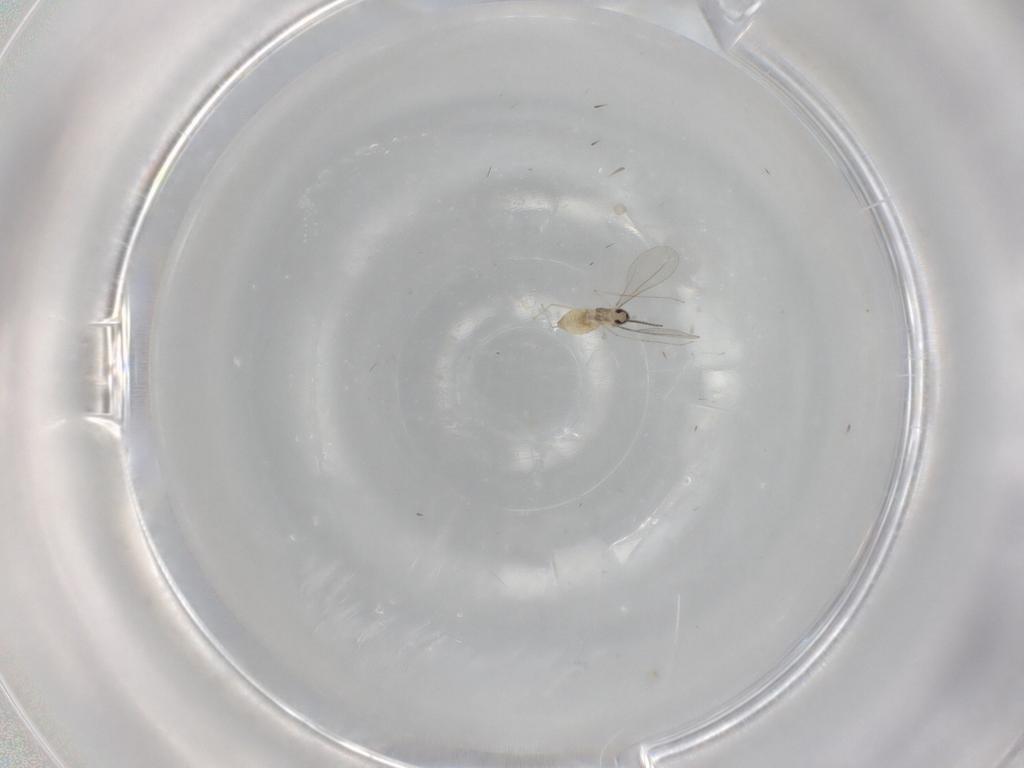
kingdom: Animalia
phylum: Arthropoda
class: Insecta
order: Diptera
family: Cecidomyiidae
